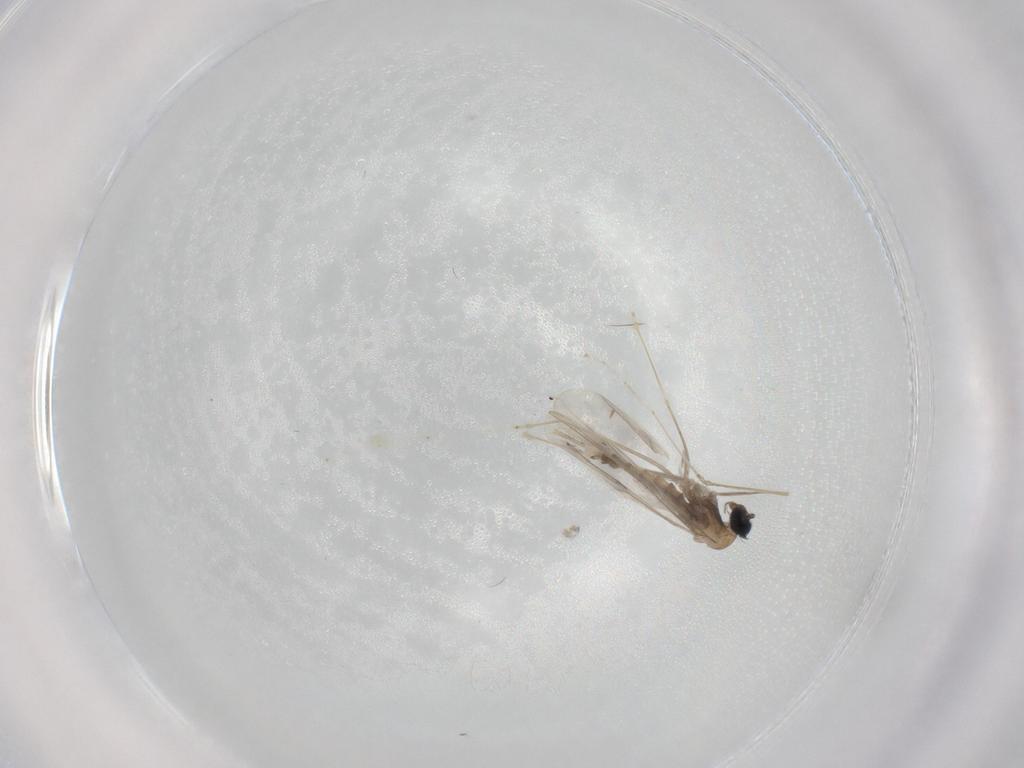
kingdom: Animalia
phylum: Arthropoda
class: Insecta
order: Diptera
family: Cecidomyiidae
